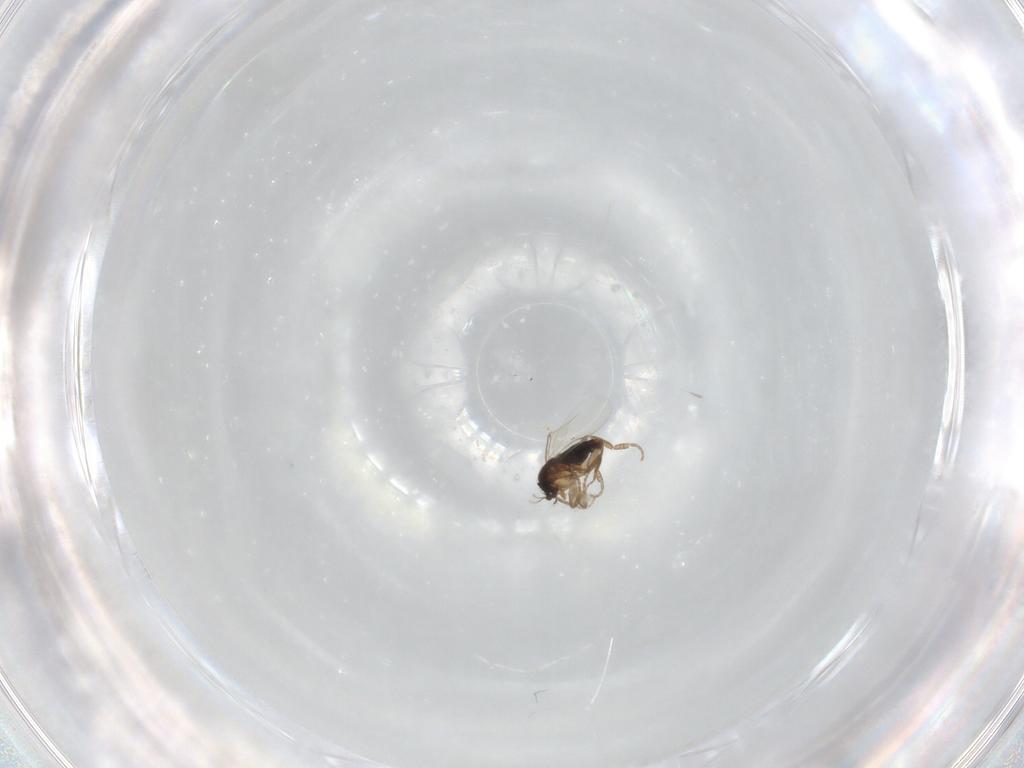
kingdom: Animalia
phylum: Arthropoda
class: Insecta
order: Diptera
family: Phoridae
